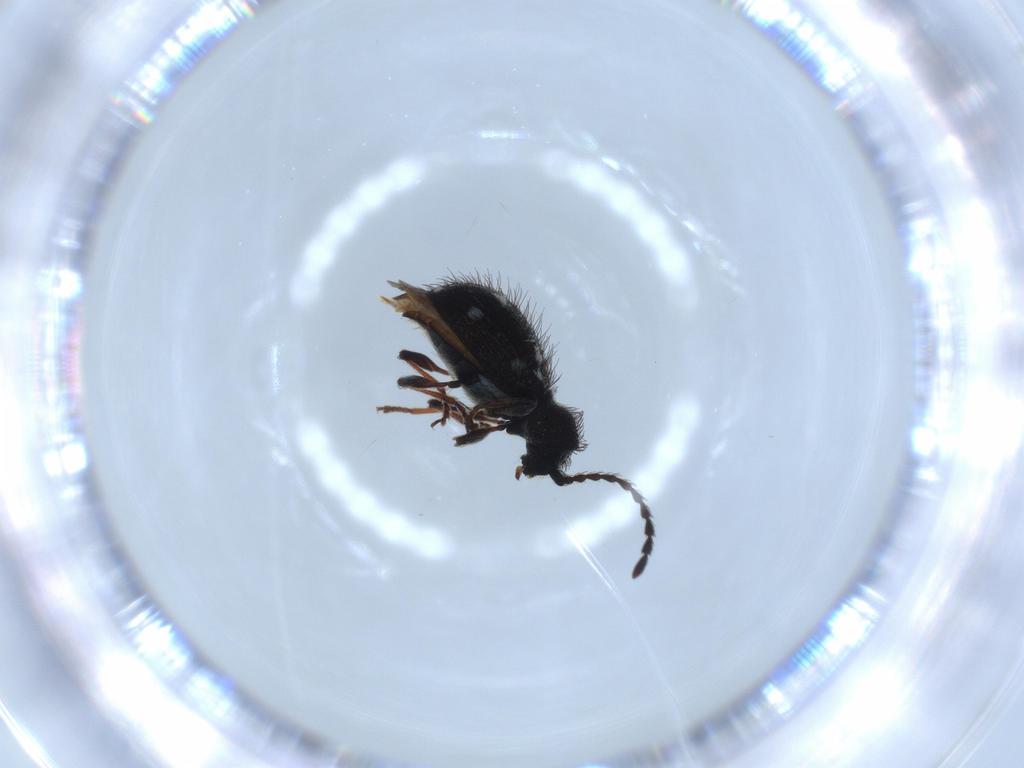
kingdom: Animalia
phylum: Arthropoda
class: Insecta
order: Coleoptera
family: Ptinidae
